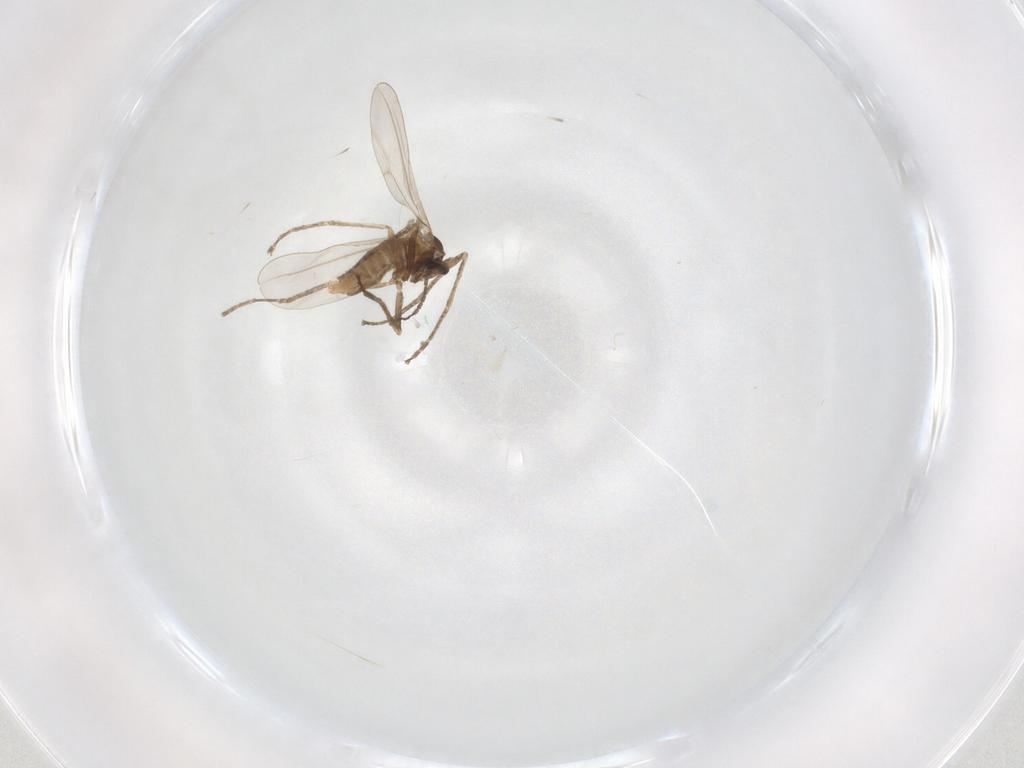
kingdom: Animalia
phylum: Arthropoda
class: Insecta
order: Diptera
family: Cecidomyiidae
